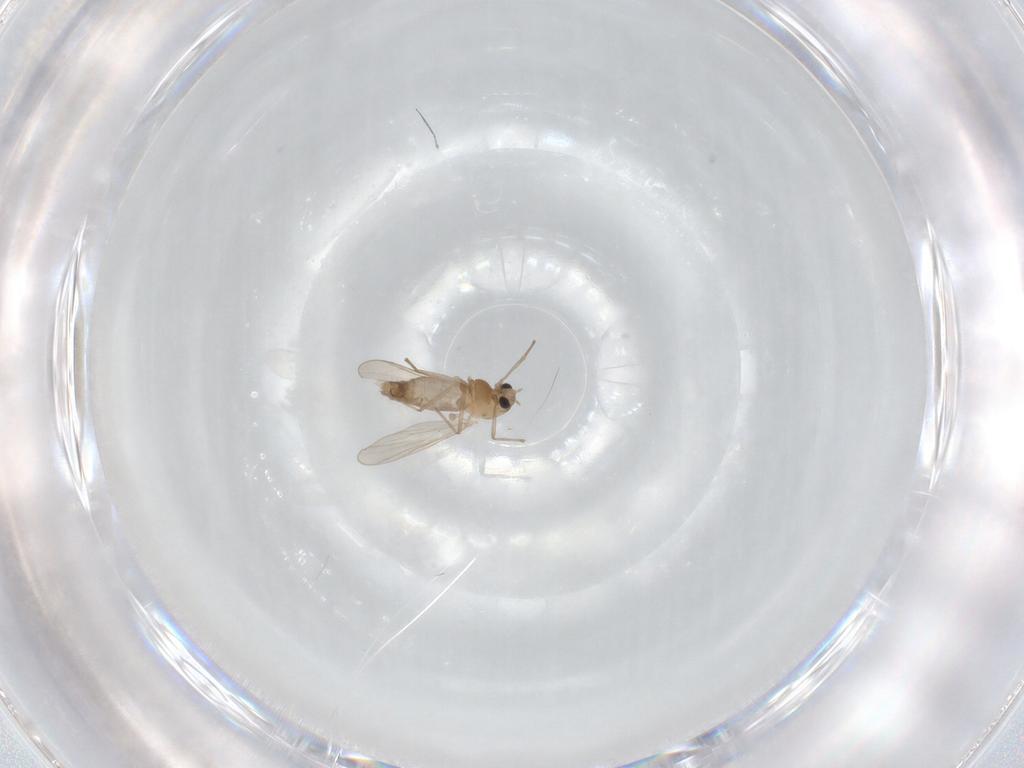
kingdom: Animalia
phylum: Arthropoda
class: Insecta
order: Diptera
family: Chironomidae
